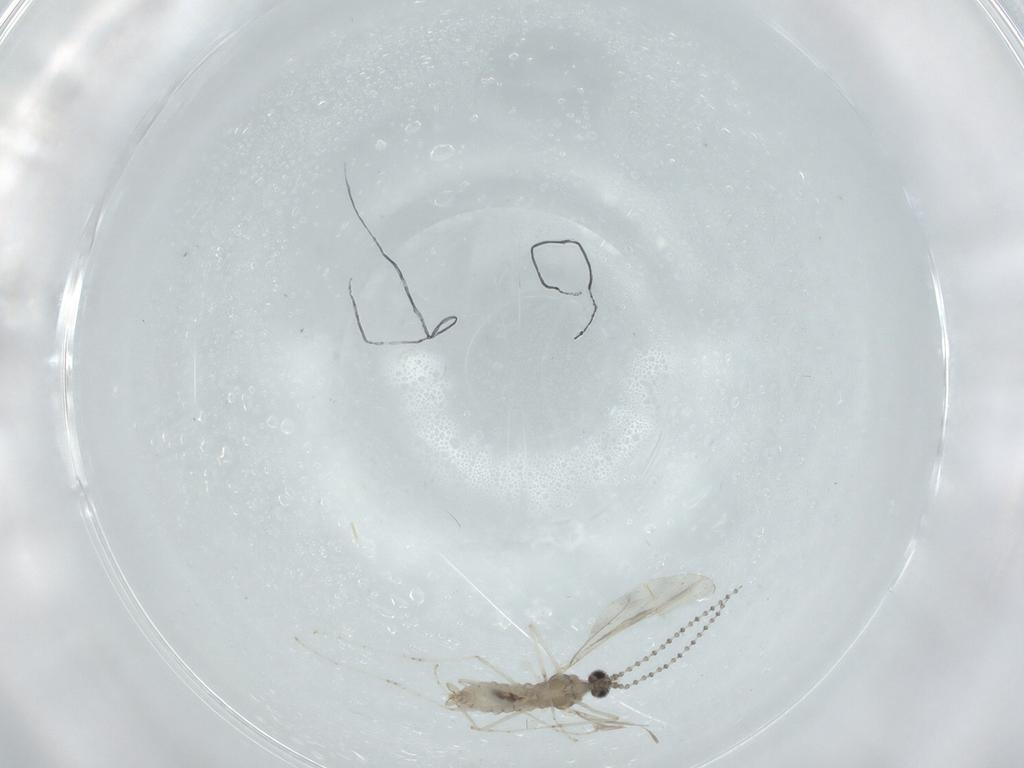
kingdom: Animalia
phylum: Arthropoda
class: Insecta
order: Diptera
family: Cecidomyiidae
